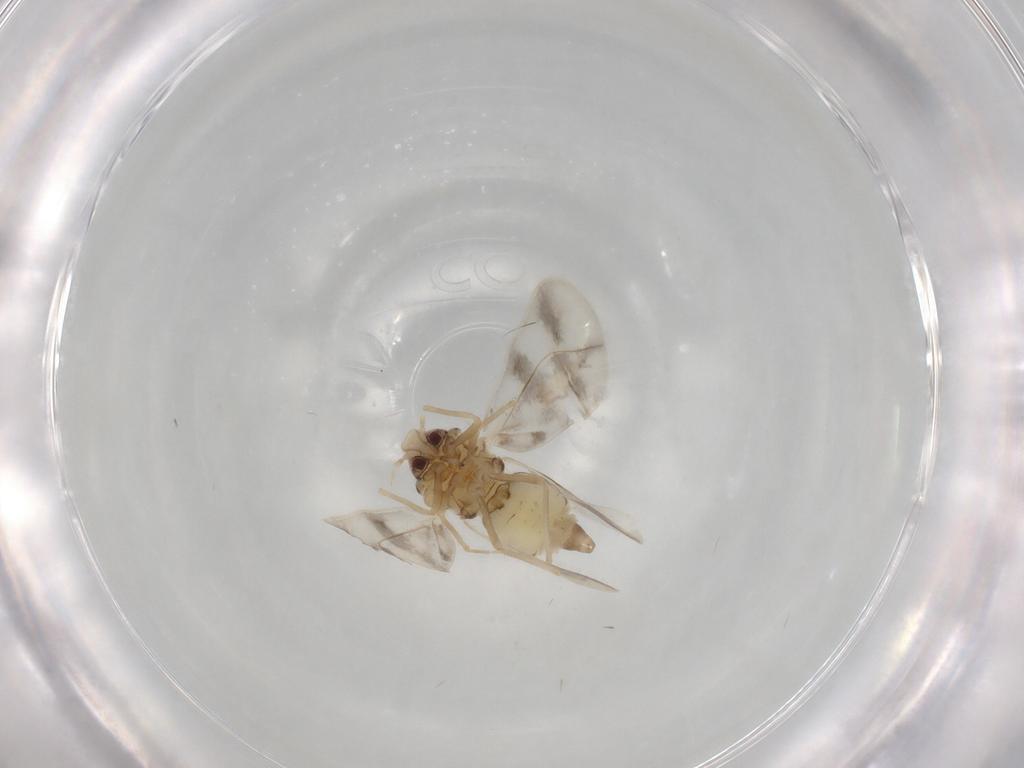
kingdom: Animalia
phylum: Arthropoda
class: Insecta
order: Hemiptera
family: Aleyrodidae
